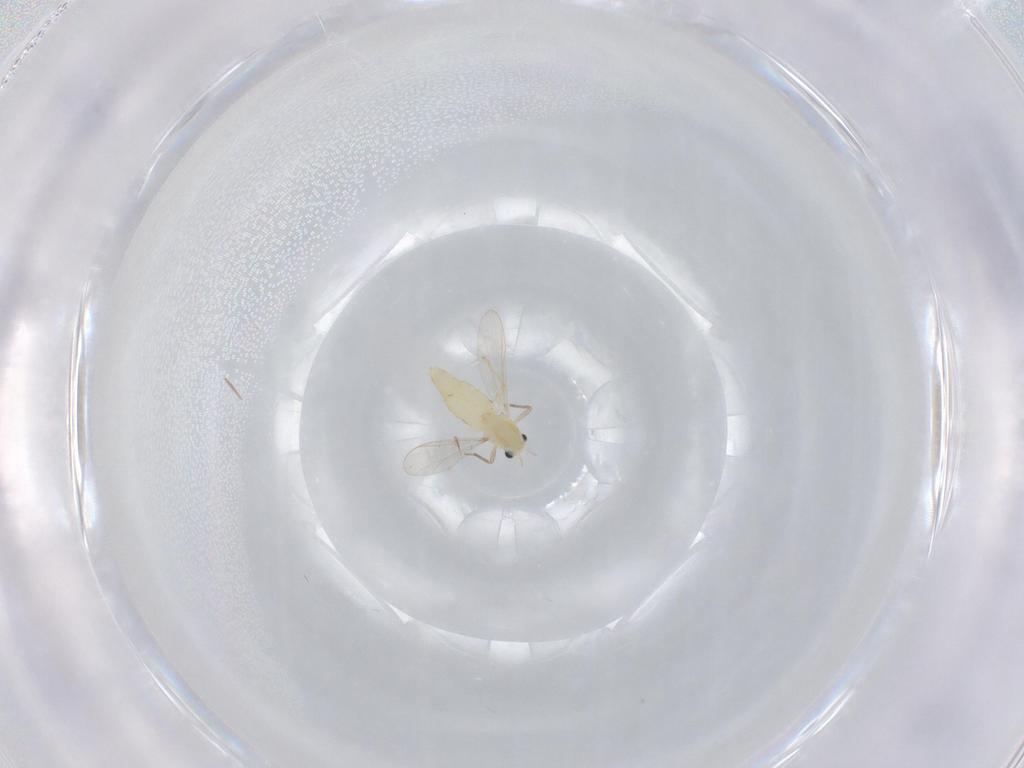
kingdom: Animalia
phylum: Arthropoda
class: Insecta
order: Diptera
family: Chironomidae
